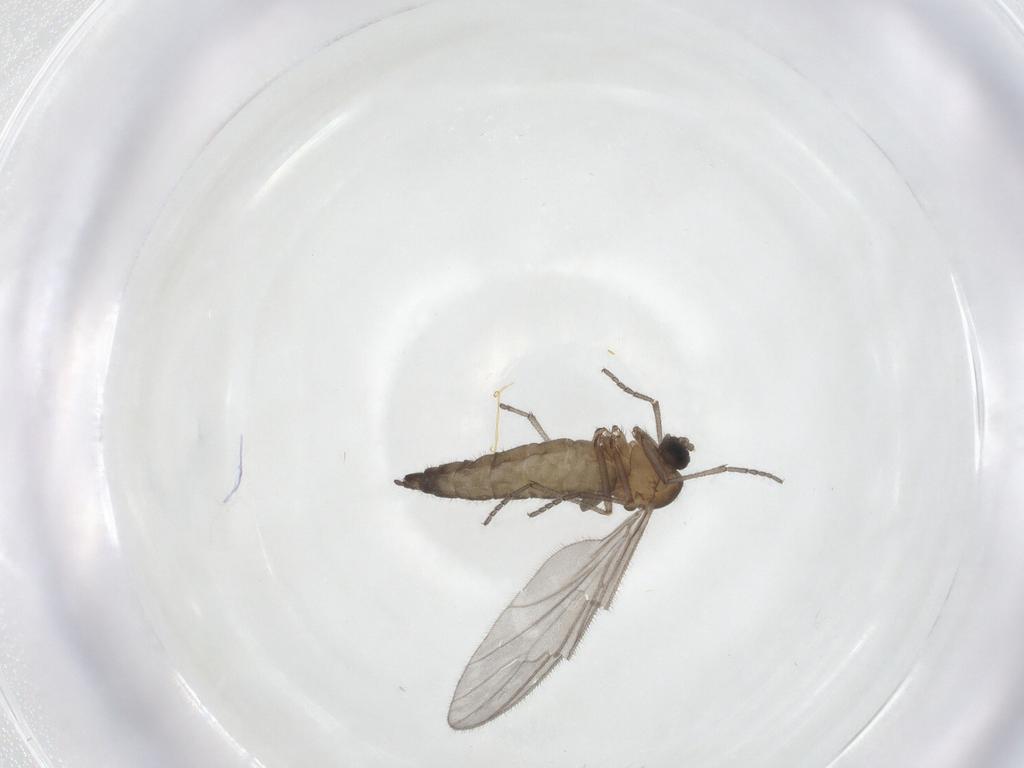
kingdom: Animalia
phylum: Arthropoda
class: Insecta
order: Diptera
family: Sciaridae
